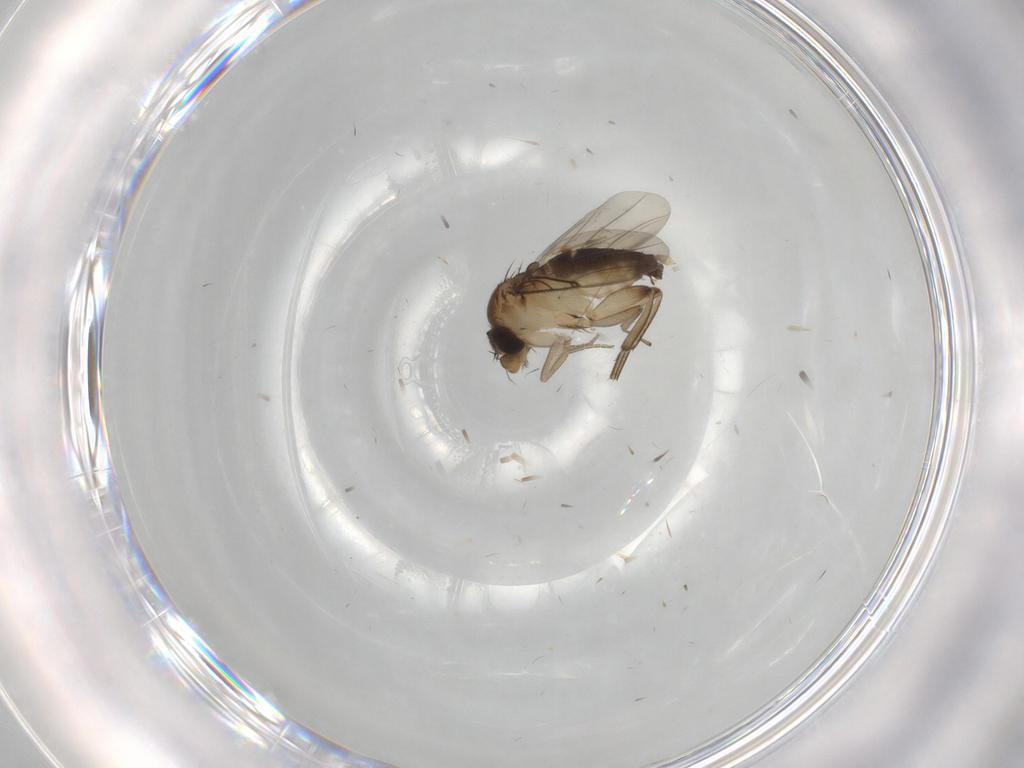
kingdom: Animalia
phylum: Arthropoda
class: Insecta
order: Diptera
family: Phoridae
